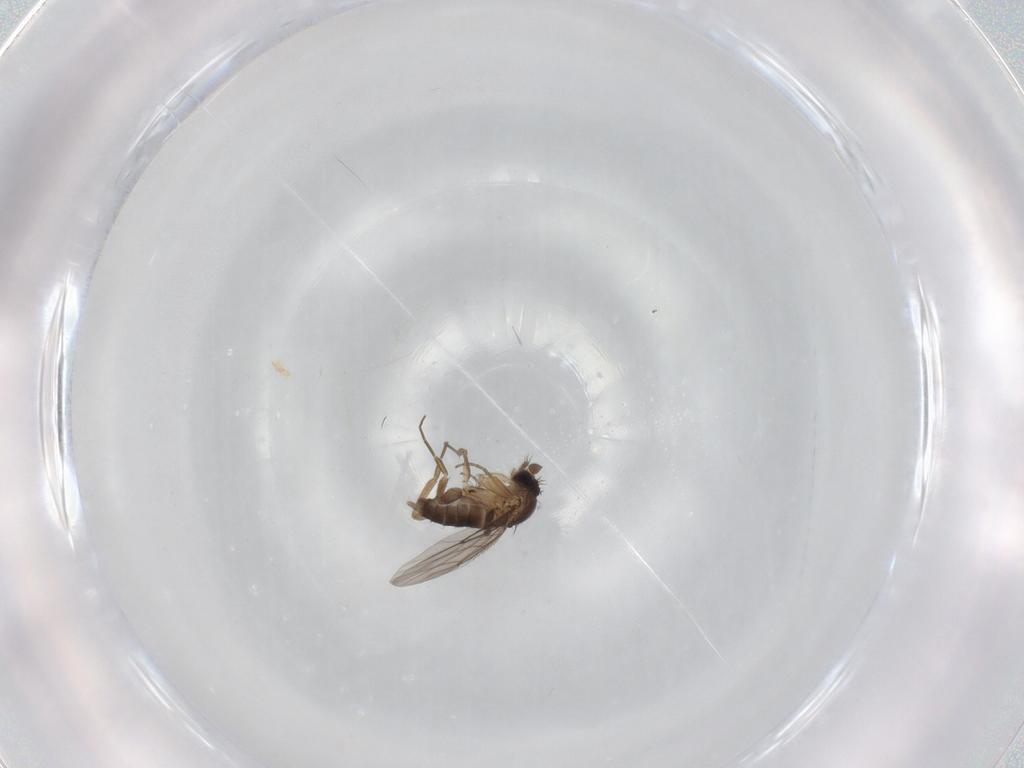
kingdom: Animalia
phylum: Arthropoda
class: Insecta
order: Diptera
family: Phoridae
